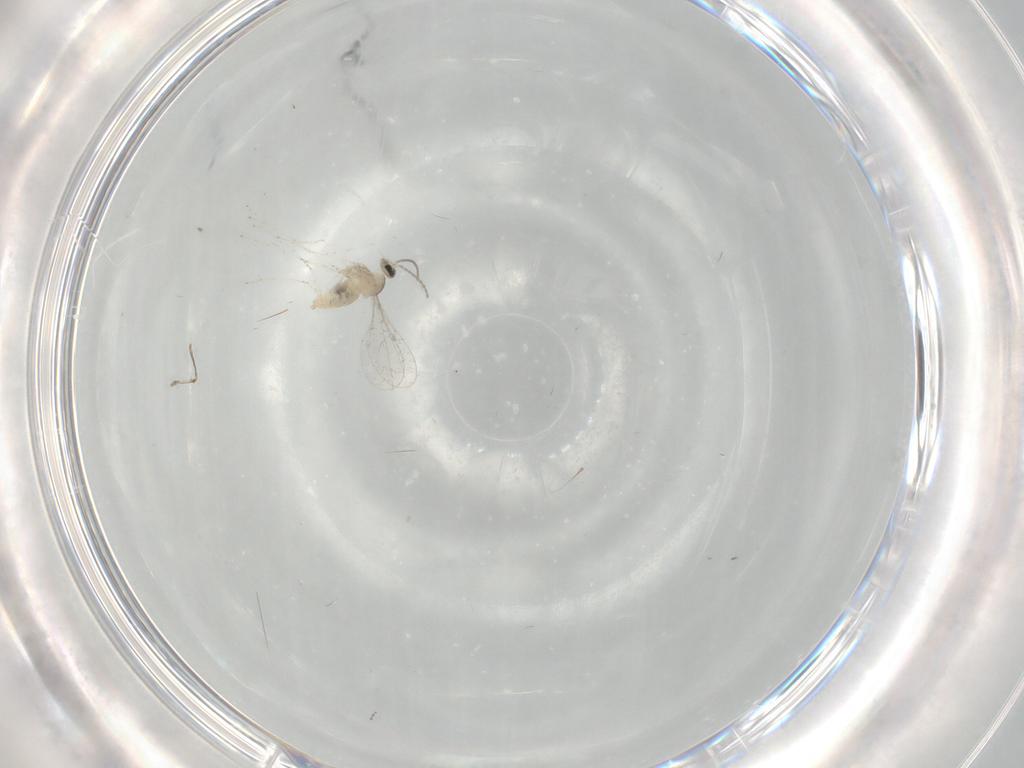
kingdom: Animalia
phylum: Arthropoda
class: Insecta
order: Diptera
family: Cecidomyiidae
